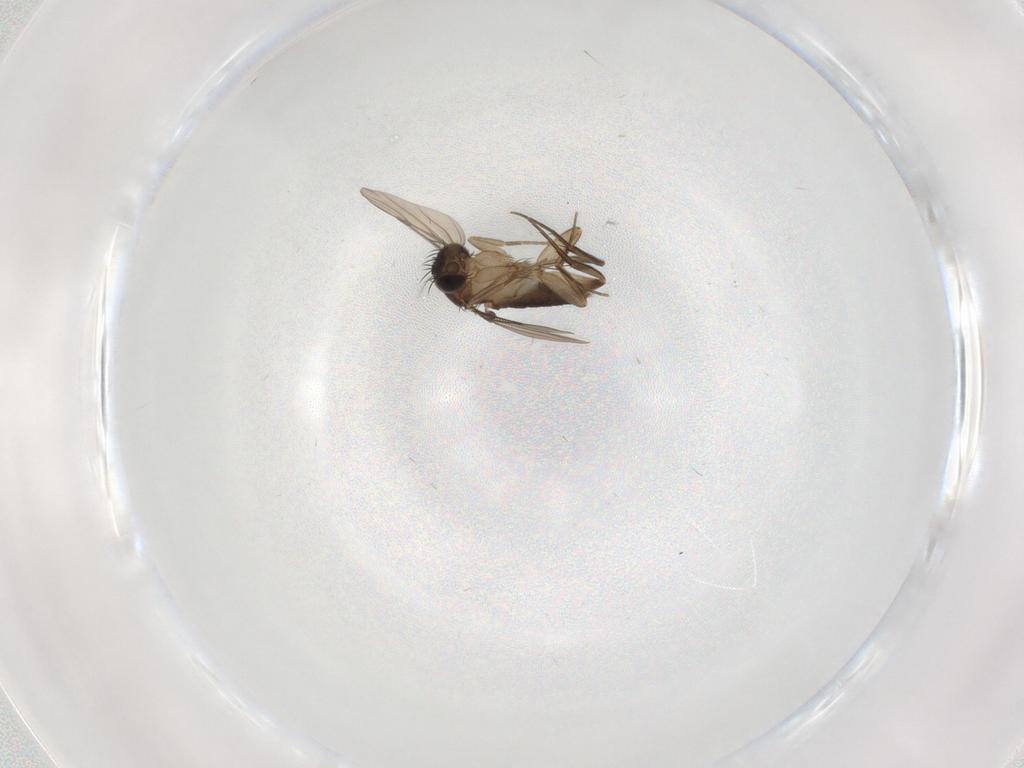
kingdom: Animalia
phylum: Arthropoda
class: Insecta
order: Diptera
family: Phoridae
